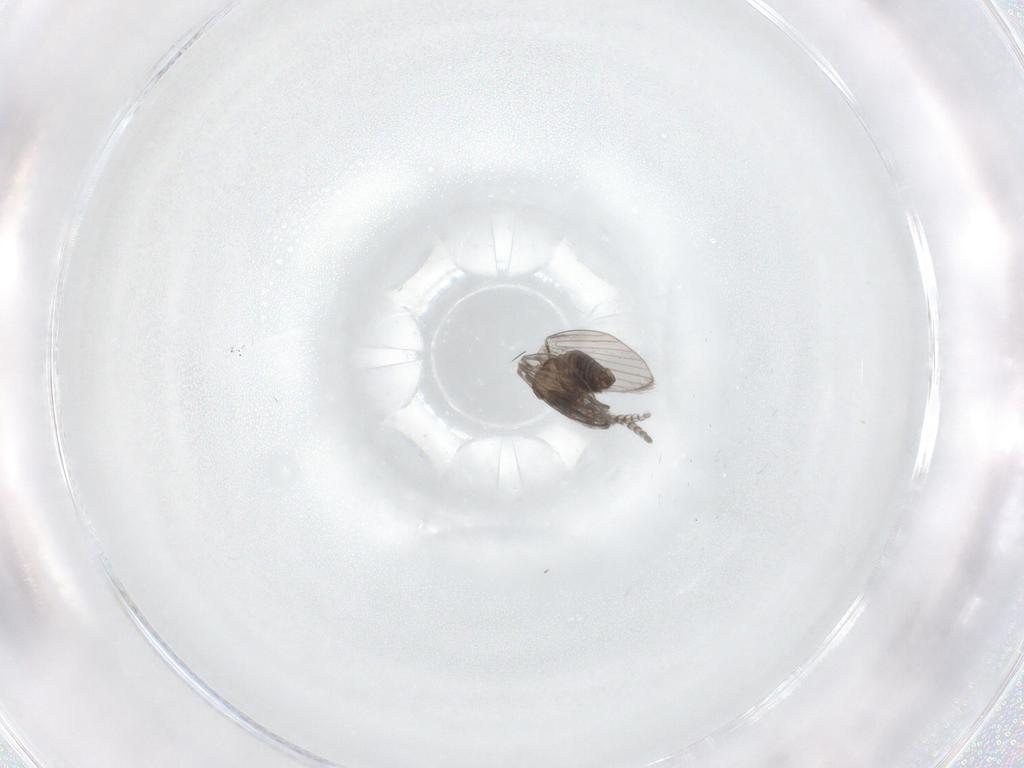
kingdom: Animalia
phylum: Arthropoda
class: Insecta
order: Diptera
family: Psychodidae
